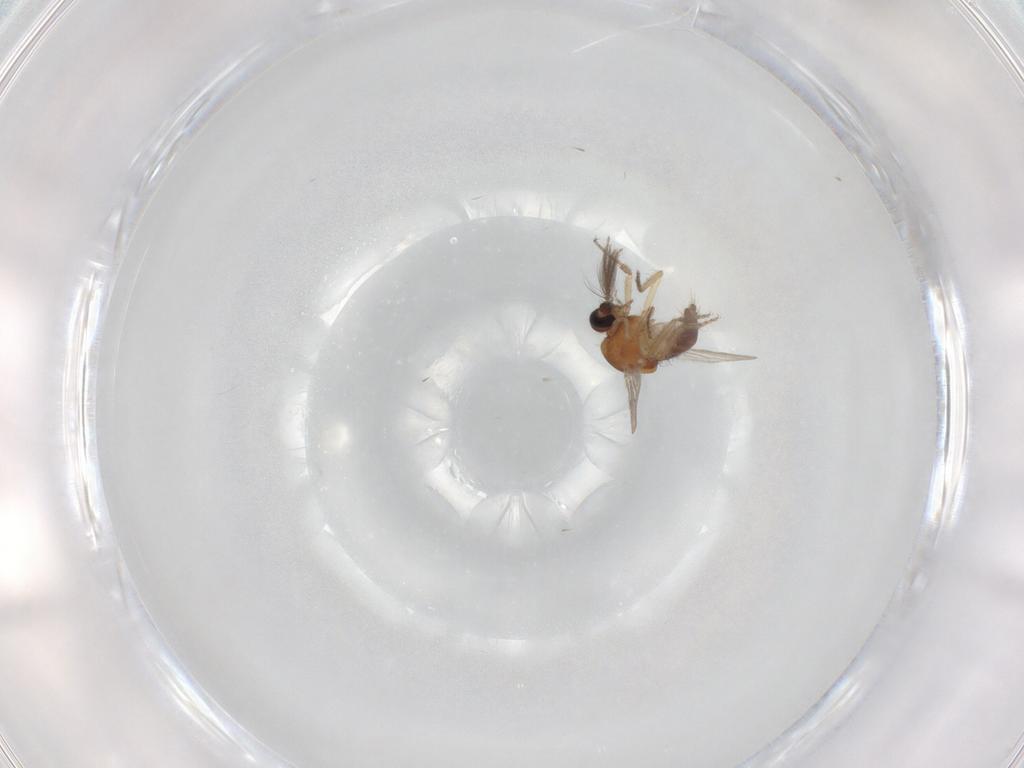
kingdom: Animalia
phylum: Arthropoda
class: Insecta
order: Diptera
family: Ceratopogonidae
